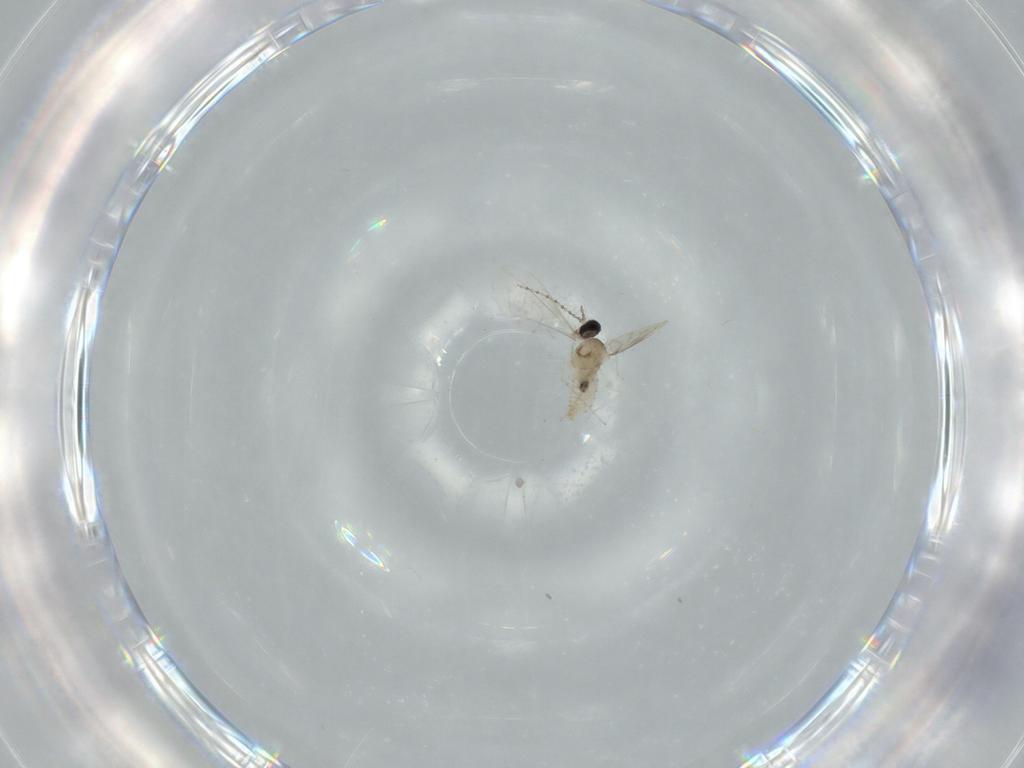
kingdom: Animalia
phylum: Arthropoda
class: Insecta
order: Diptera
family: Cecidomyiidae
